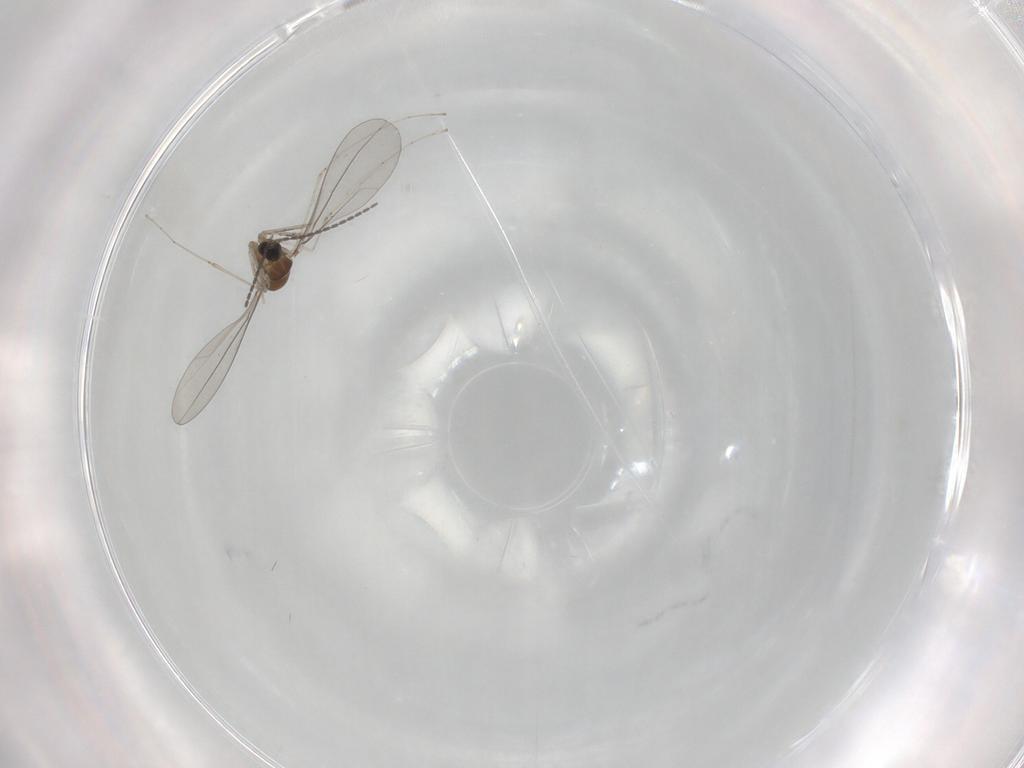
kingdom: Animalia
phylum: Arthropoda
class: Insecta
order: Diptera
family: Cecidomyiidae
